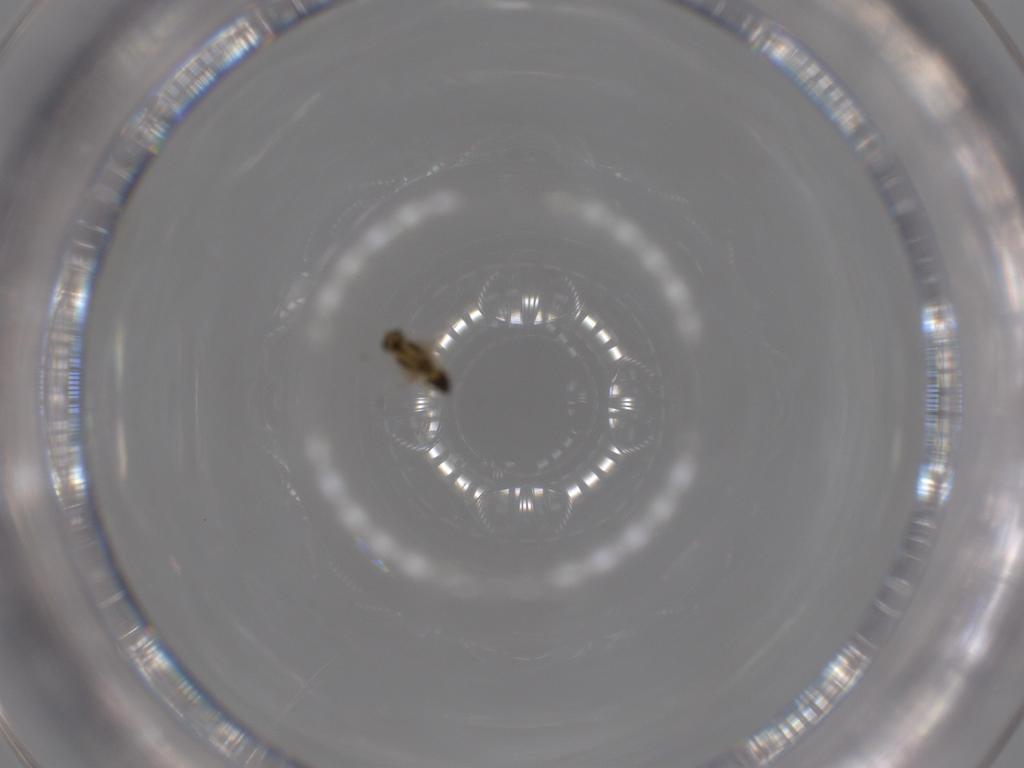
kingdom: Animalia
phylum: Arthropoda
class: Insecta
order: Diptera
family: Chironomidae
